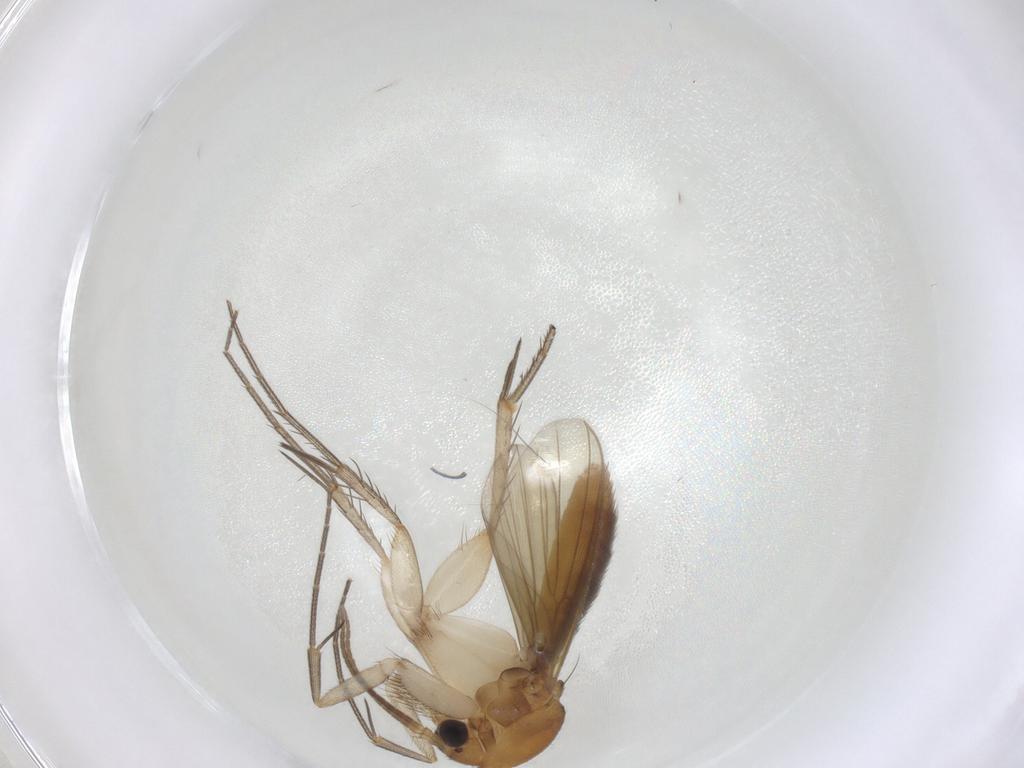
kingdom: Animalia
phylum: Arthropoda
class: Insecta
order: Diptera
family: Mycetophilidae
